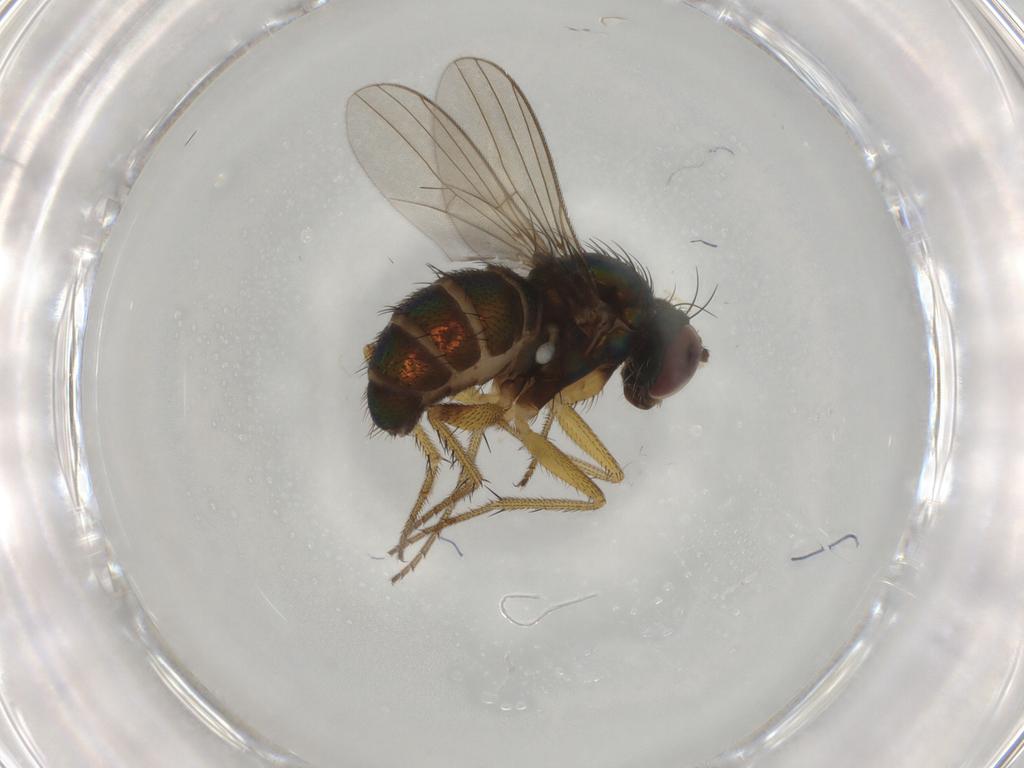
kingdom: Animalia
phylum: Arthropoda
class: Insecta
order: Diptera
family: Dolichopodidae
